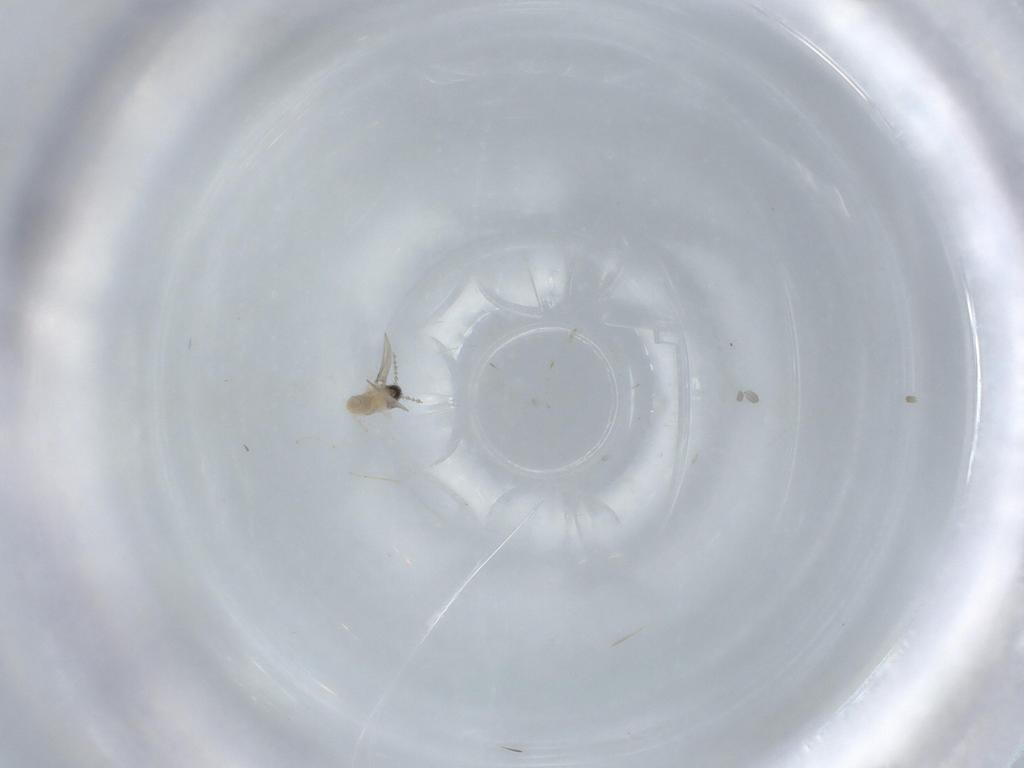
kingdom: Animalia
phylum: Arthropoda
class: Insecta
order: Diptera
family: Cecidomyiidae
